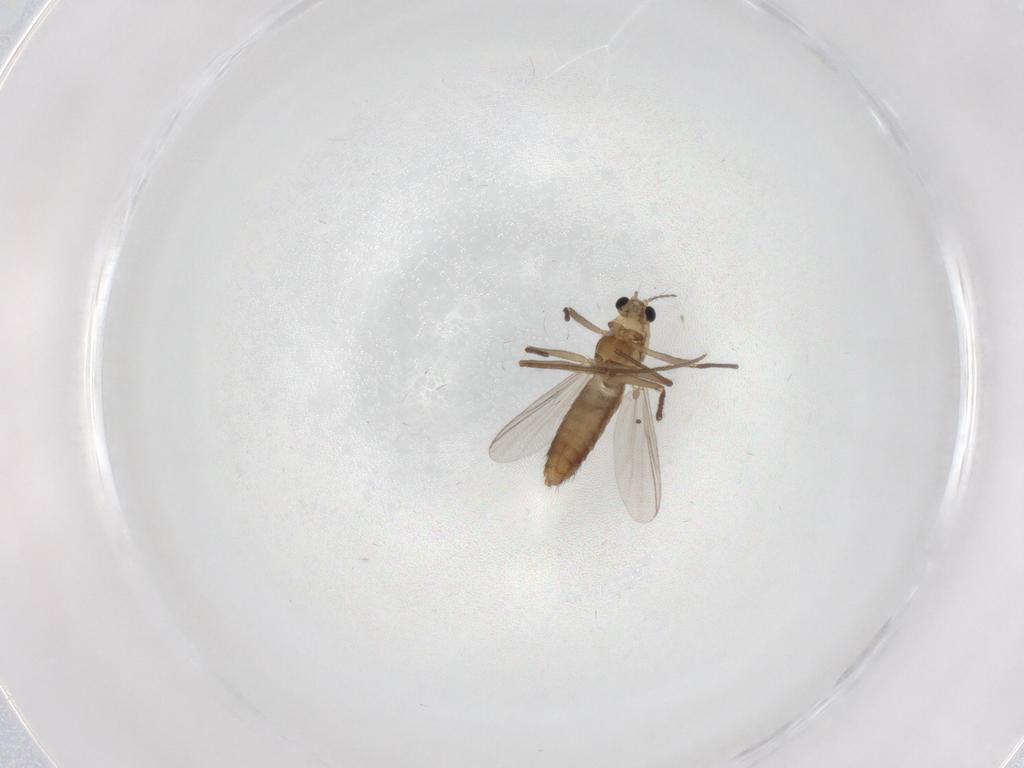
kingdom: Animalia
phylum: Arthropoda
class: Insecta
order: Diptera
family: Chironomidae
